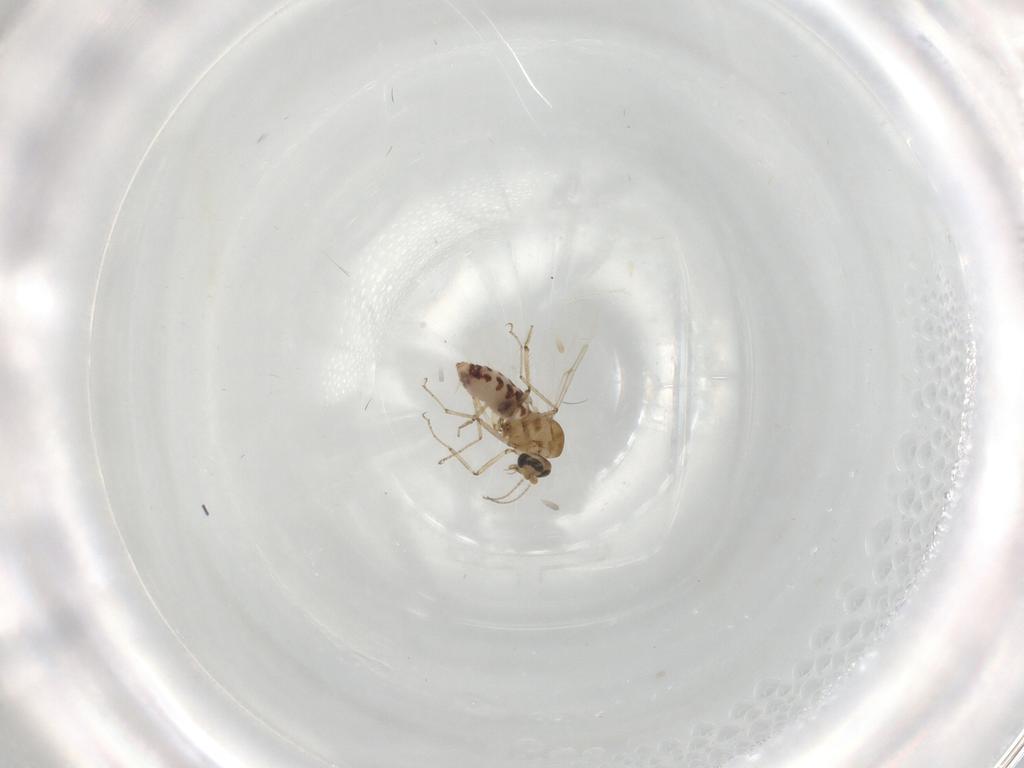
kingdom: Animalia
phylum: Arthropoda
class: Insecta
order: Diptera
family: Ceratopogonidae
